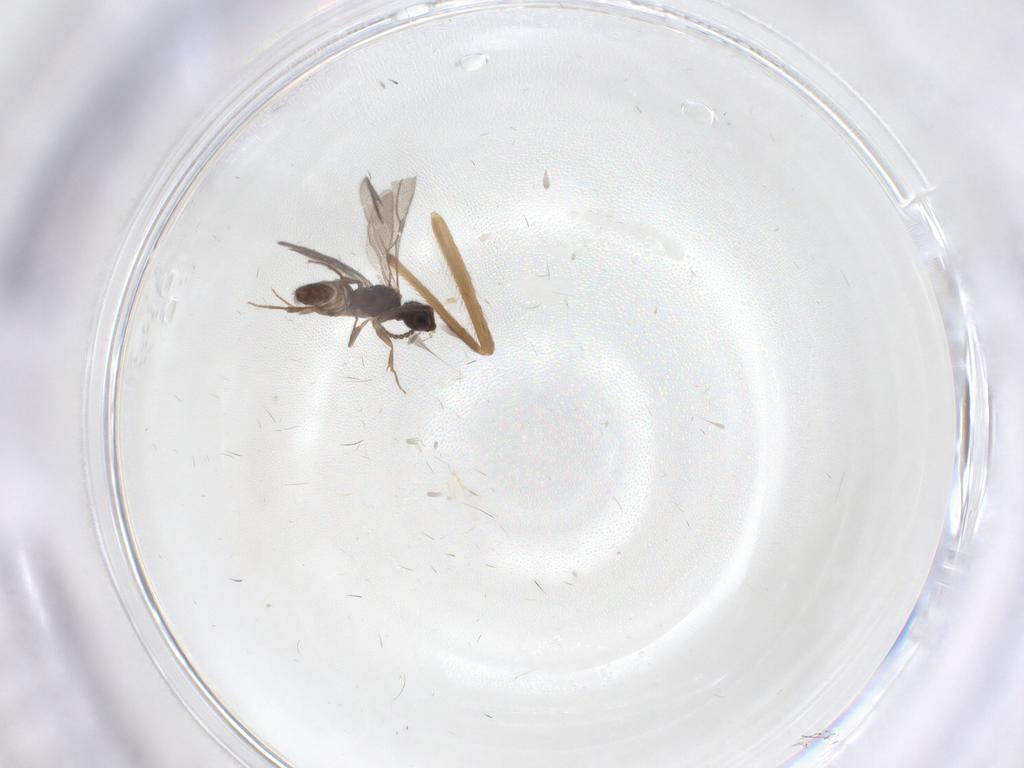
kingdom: Animalia
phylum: Arthropoda
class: Insecta
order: Hymenoptera
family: Bethylidae
